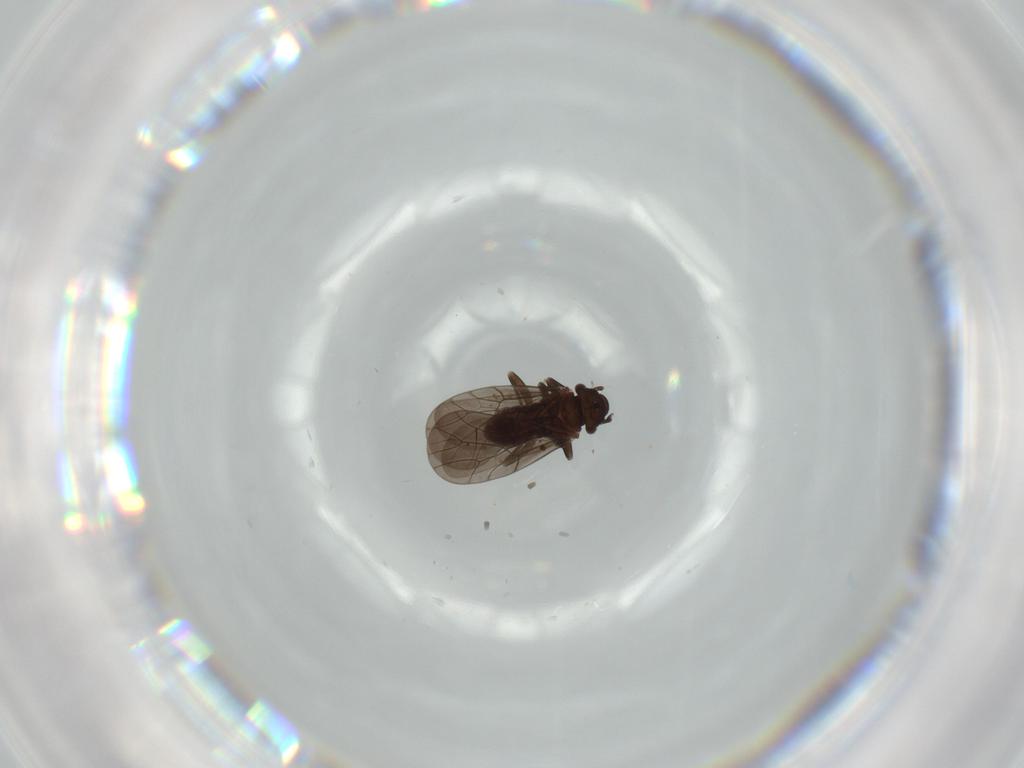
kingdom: Animalia
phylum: Arthropoda
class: Insecta
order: Psocodea
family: Lepidopsocidae
